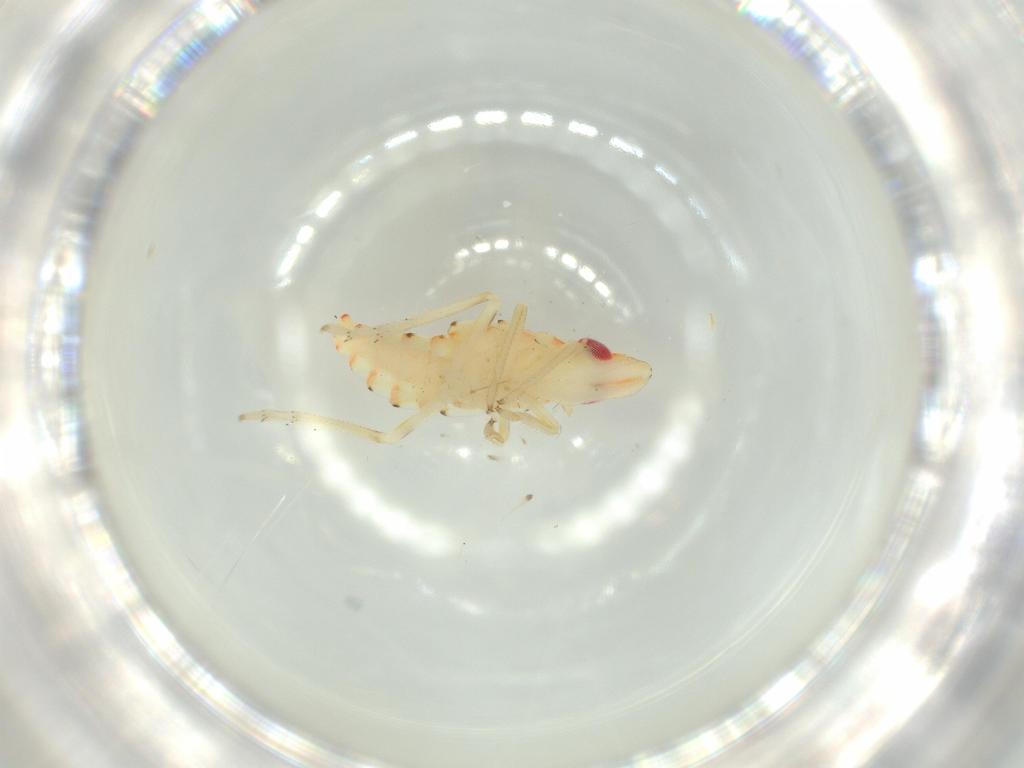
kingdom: Animalia
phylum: Arthropoda
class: Insecta
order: Hemiptera
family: Tropiduchidae
